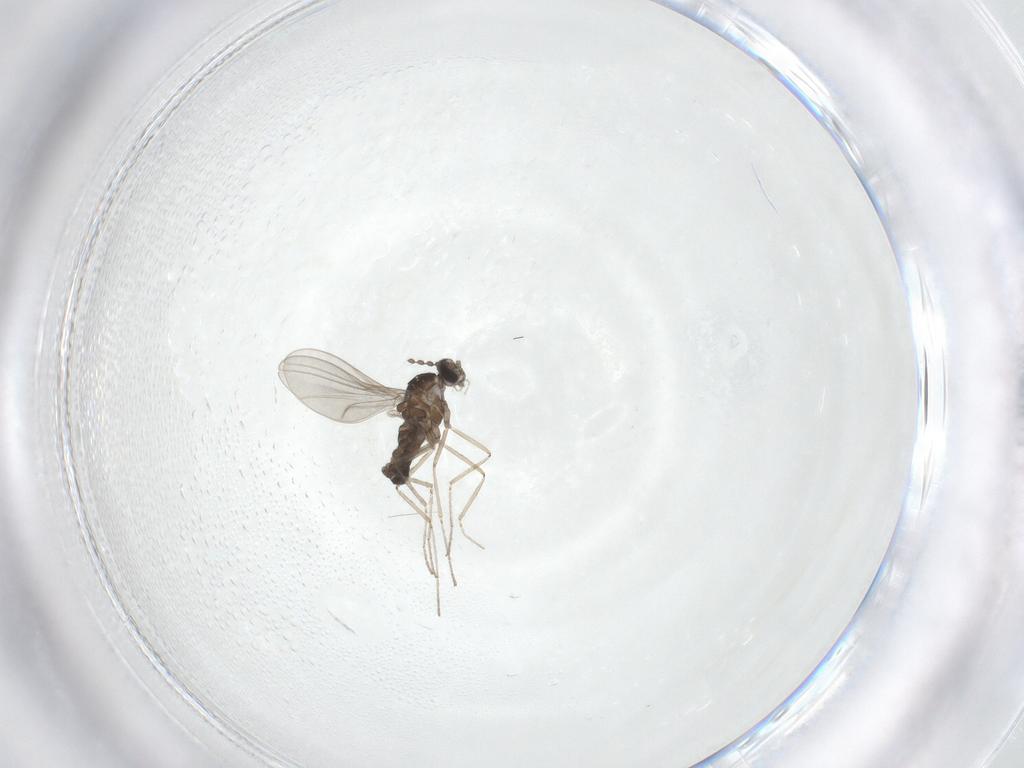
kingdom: Animalia
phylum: Arthropoda
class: Insecta
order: Diptera
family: Cecidomyiidae
